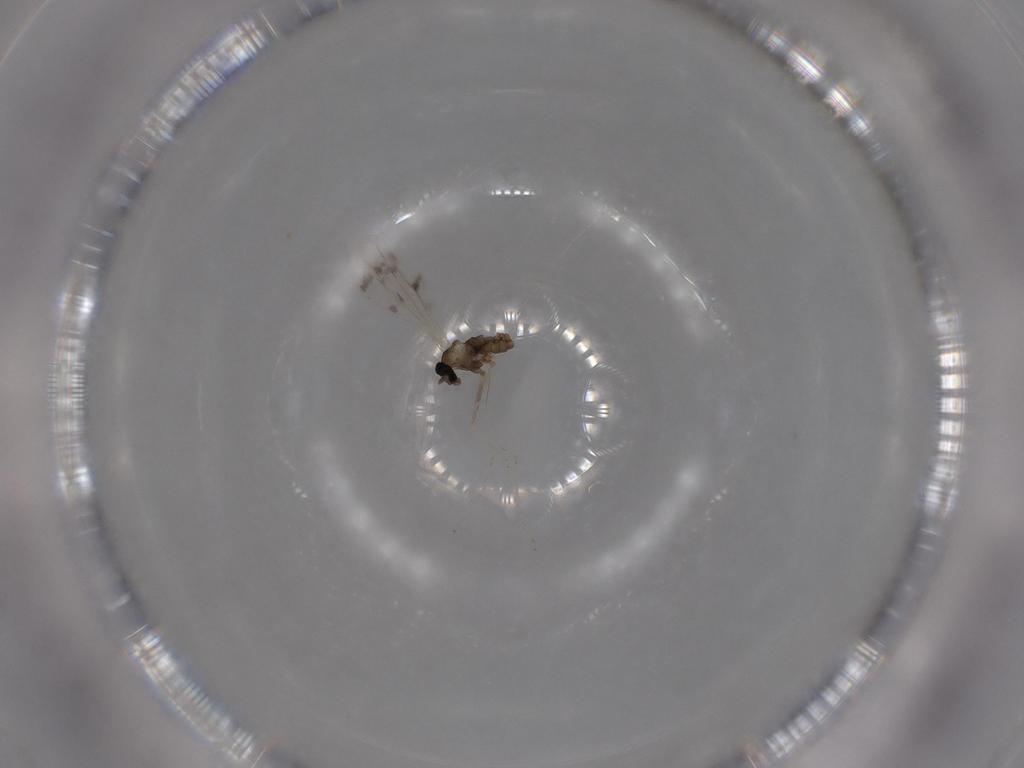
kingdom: Animalia
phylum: Arthropoda
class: Insecta
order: Diptera
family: Cecidomyiidae
